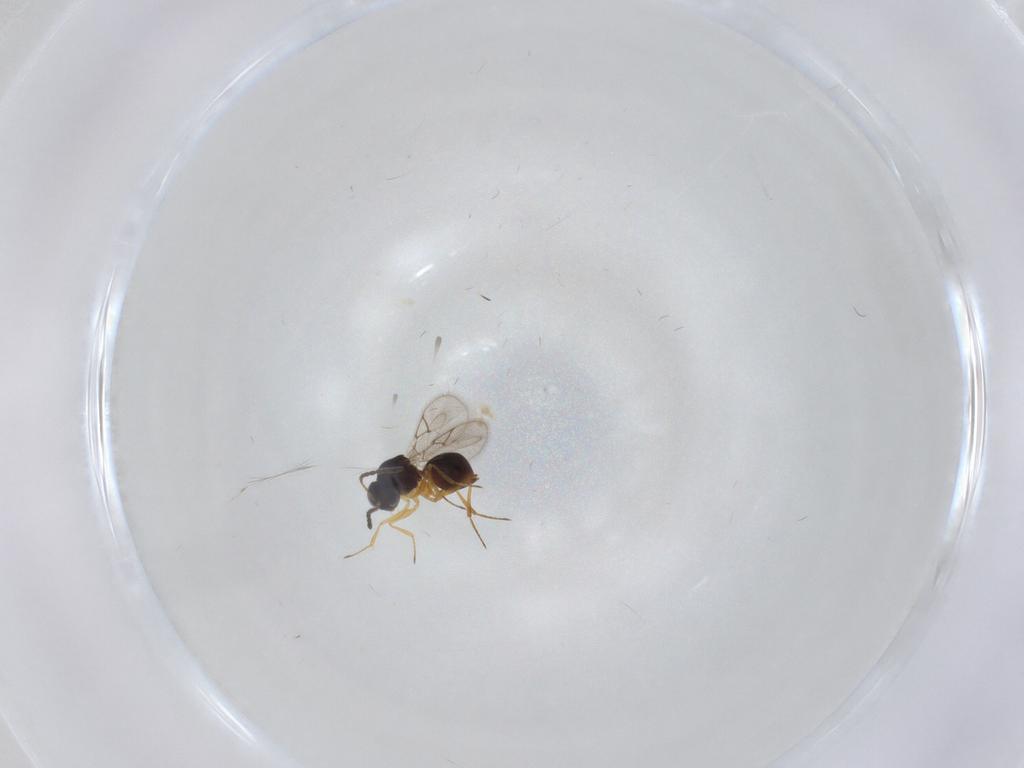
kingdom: Animalia
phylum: Arthropoda
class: Insecta
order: Hymenoptera
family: Figitidae
